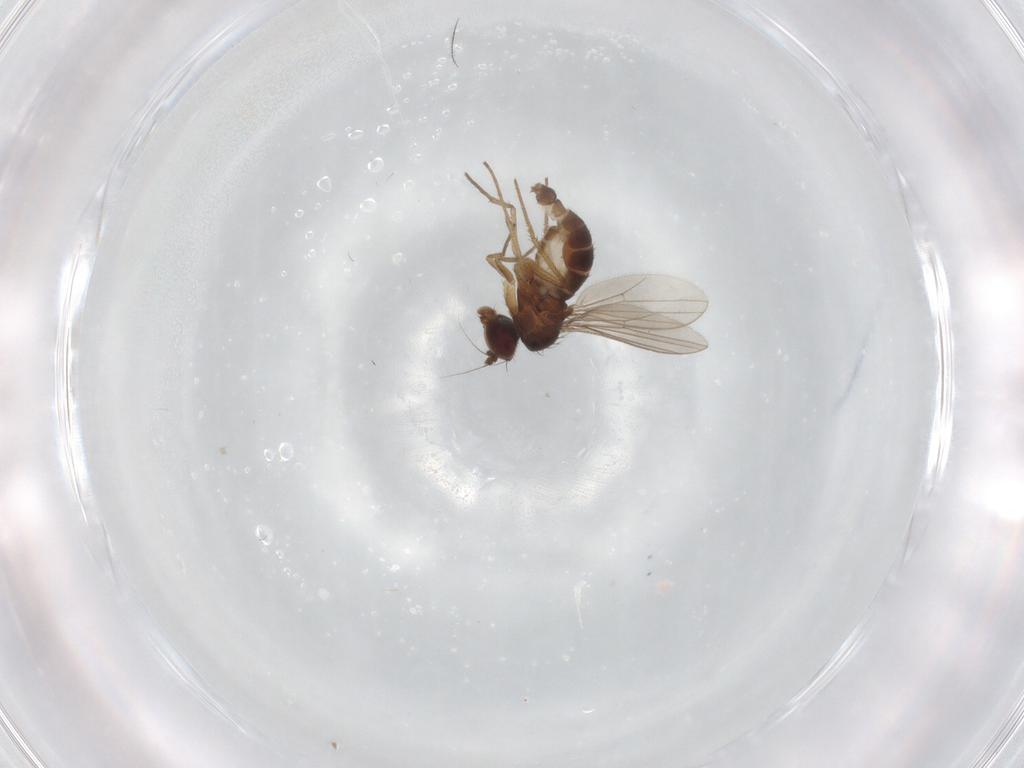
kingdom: Animalia
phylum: Arthropoda
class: Insecta
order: Diptera
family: Dolichopodidae
